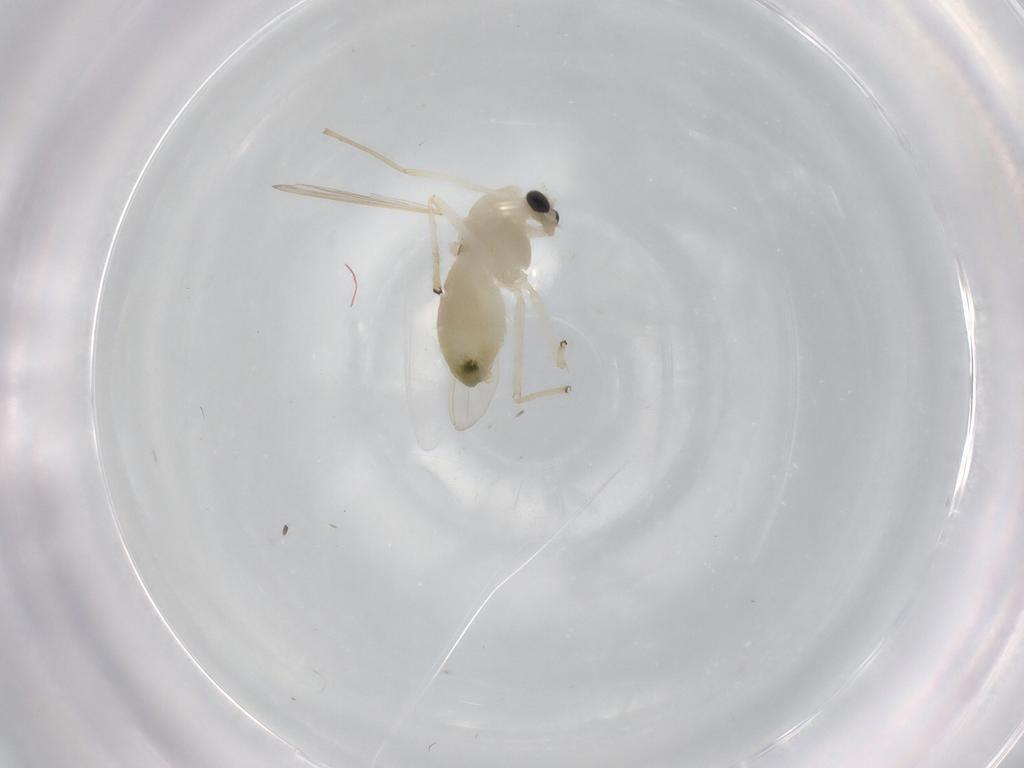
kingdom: Animalia
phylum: Arthropoda
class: Insecta
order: Diptera
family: Chironomidae
